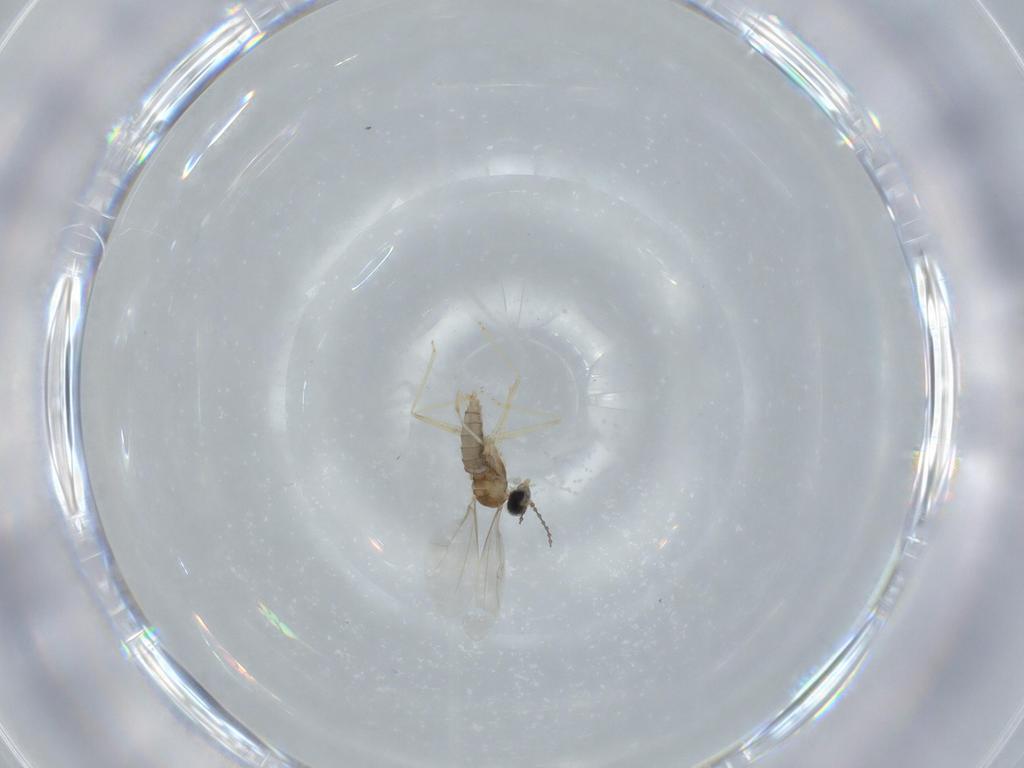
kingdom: Animalia
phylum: Arthropoda
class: Insecta
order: Diptera
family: Cecidomyiidae
